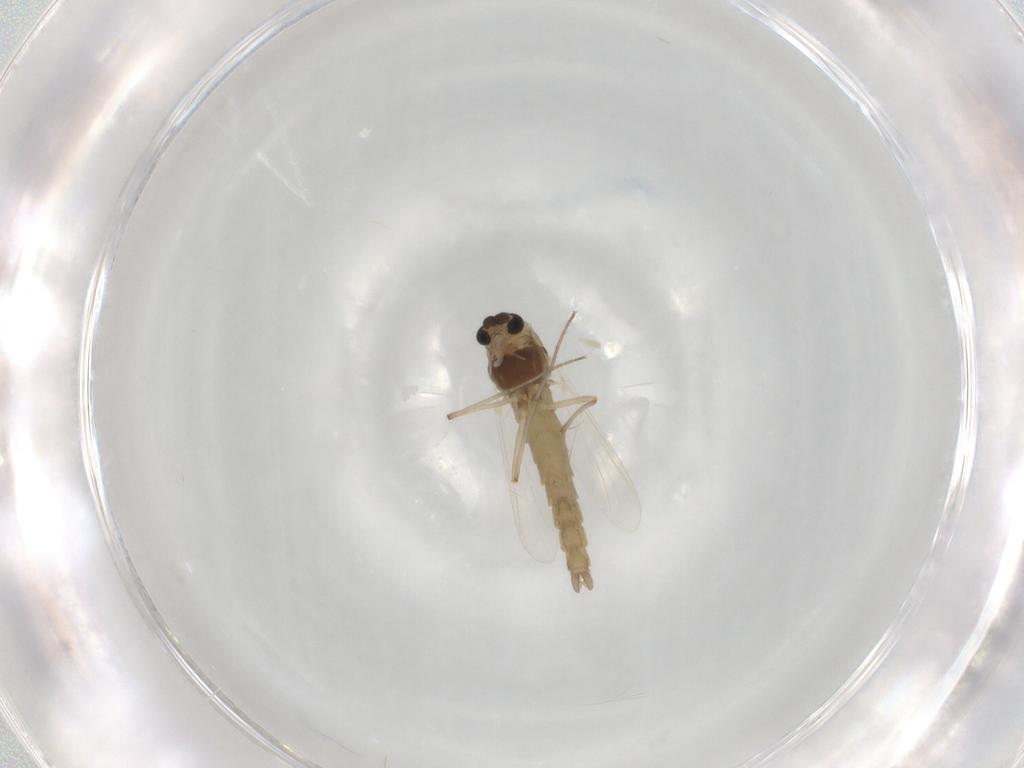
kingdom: Animalia
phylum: Arthropoda
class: Insecta
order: Diptera
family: Chironomidae
